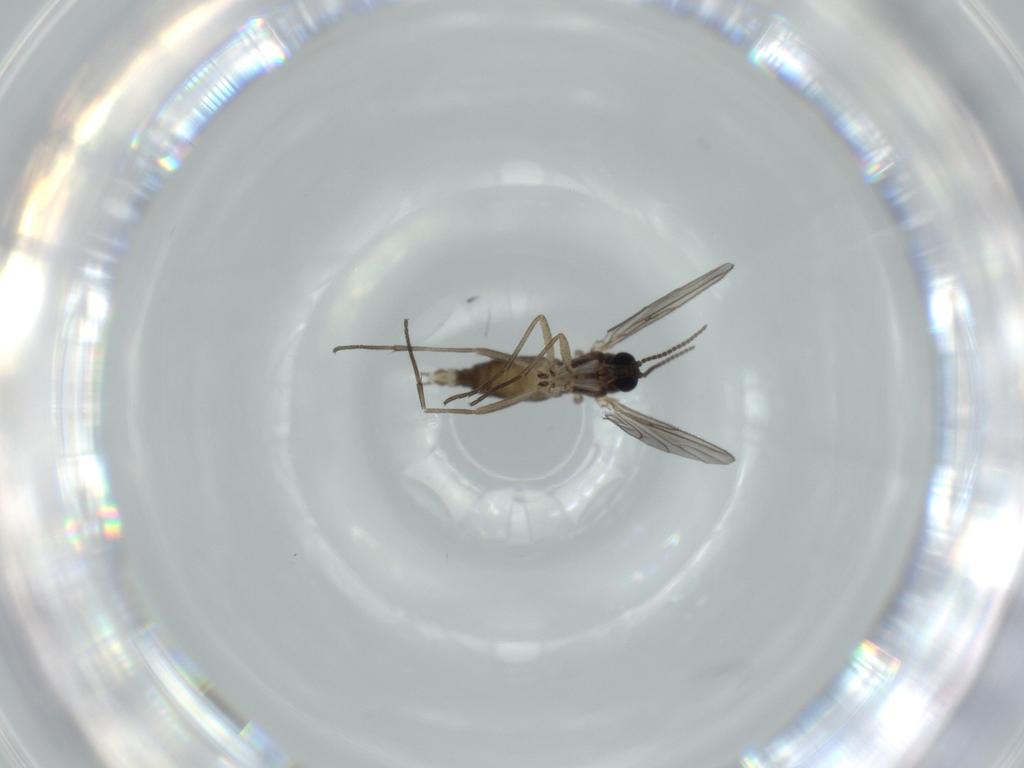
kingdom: Animalia
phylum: Arthropoda
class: Insecta
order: Diptera
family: Sciaridae
